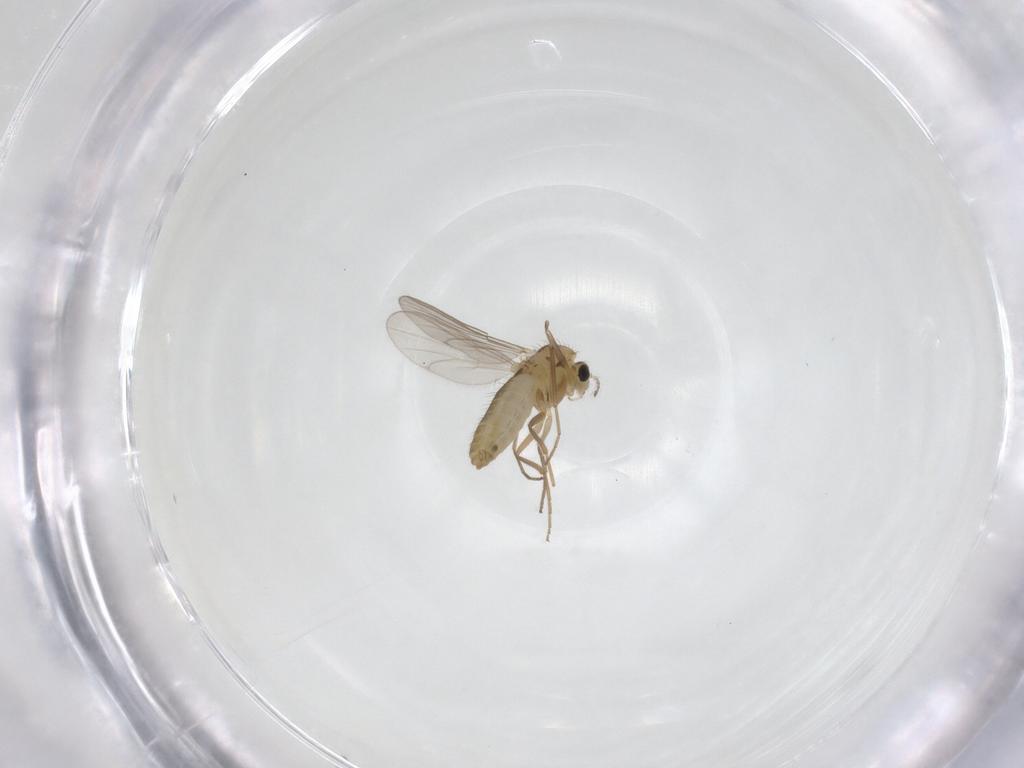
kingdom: Animalia
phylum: Arthropoda
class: Insecta
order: Diptera
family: Chironomidae
